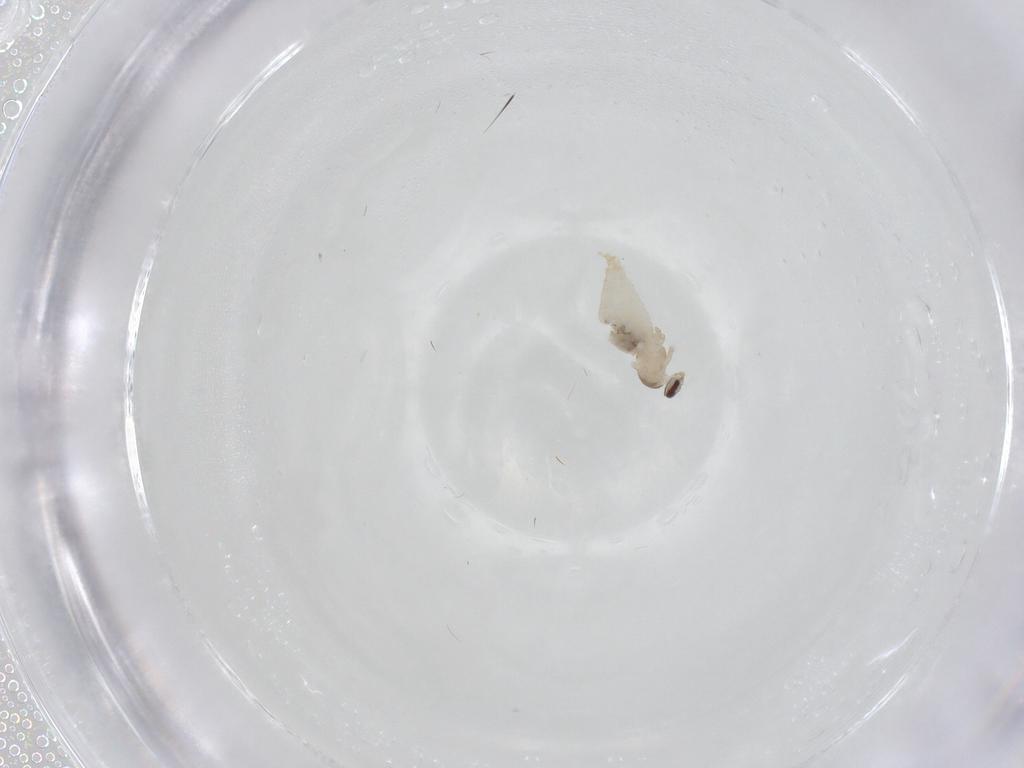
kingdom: Animalia
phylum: Arthropoda
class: Insecta
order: Diptera
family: Cecidomyiidae
